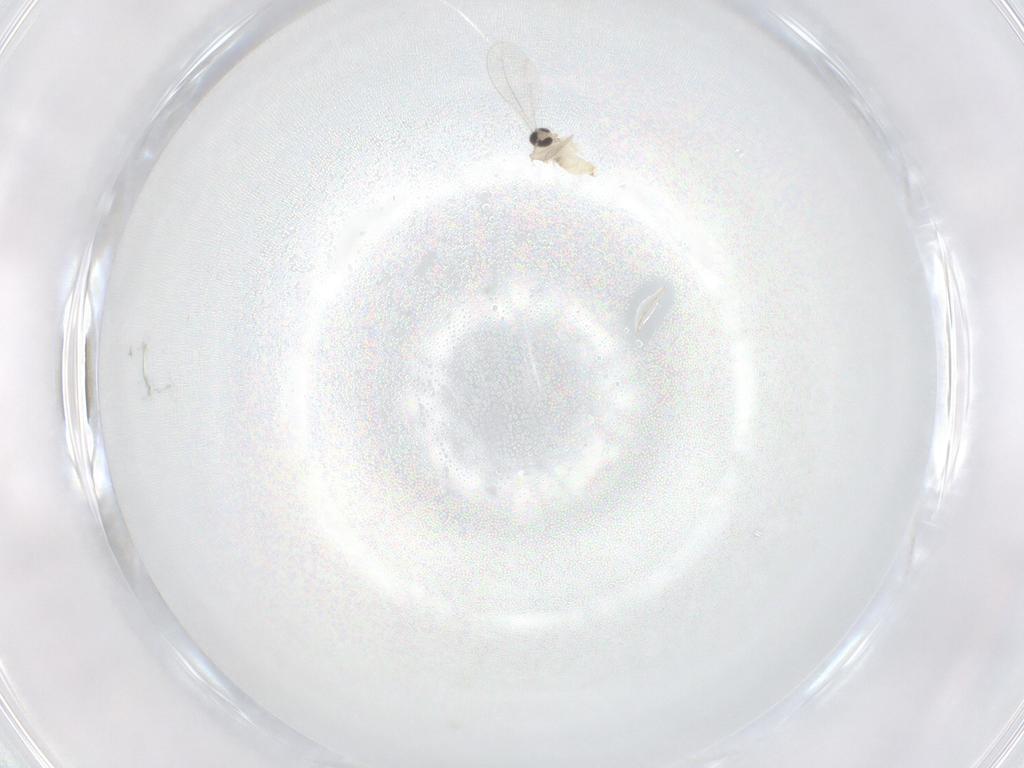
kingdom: Animalia
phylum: Arthropoda
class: Insecta
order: Diptera
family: Cecidomyiidae
